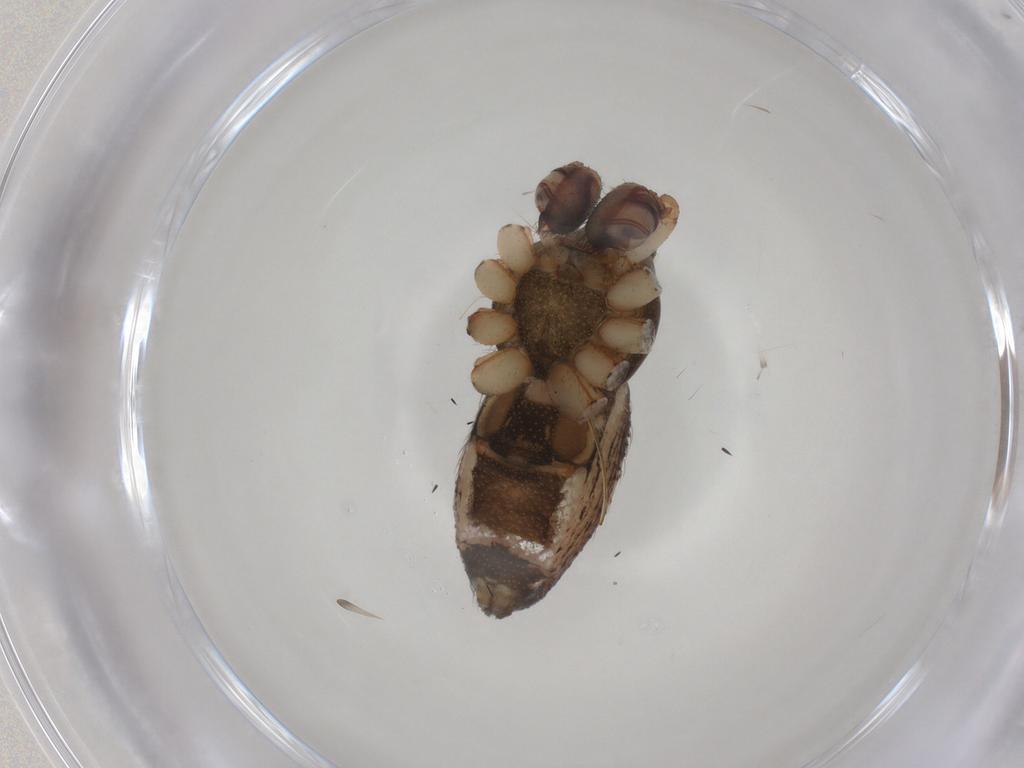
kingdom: Animalia
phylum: Arthropoda
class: Arachnida
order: Araneae
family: Theridiidae
